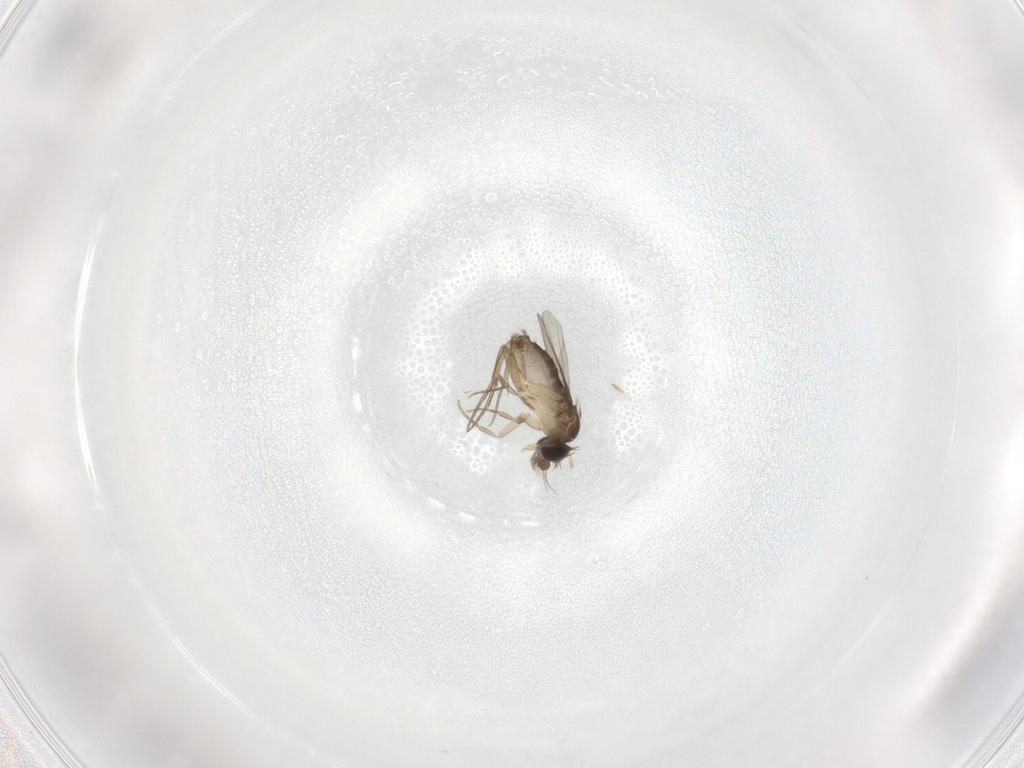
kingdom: Animalia
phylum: Arthropoda
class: Insecta
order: Diptera
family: Phoridae
